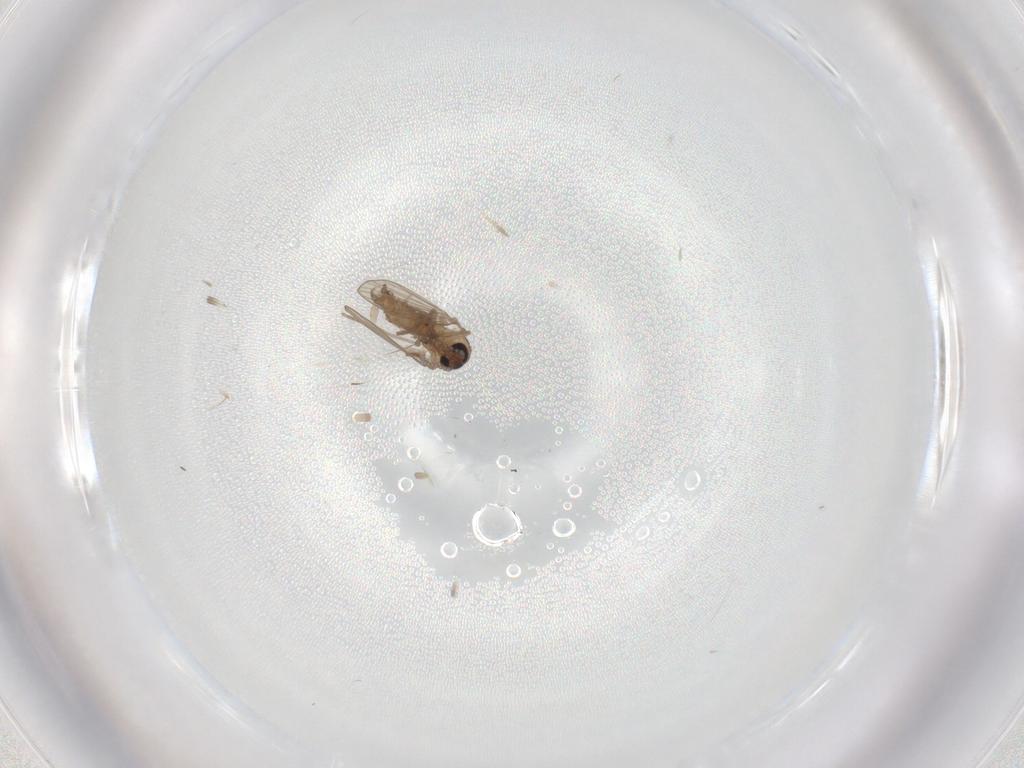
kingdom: Animalia
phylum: Arthropoda
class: Insecta
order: Diptera
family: Psychodidae
